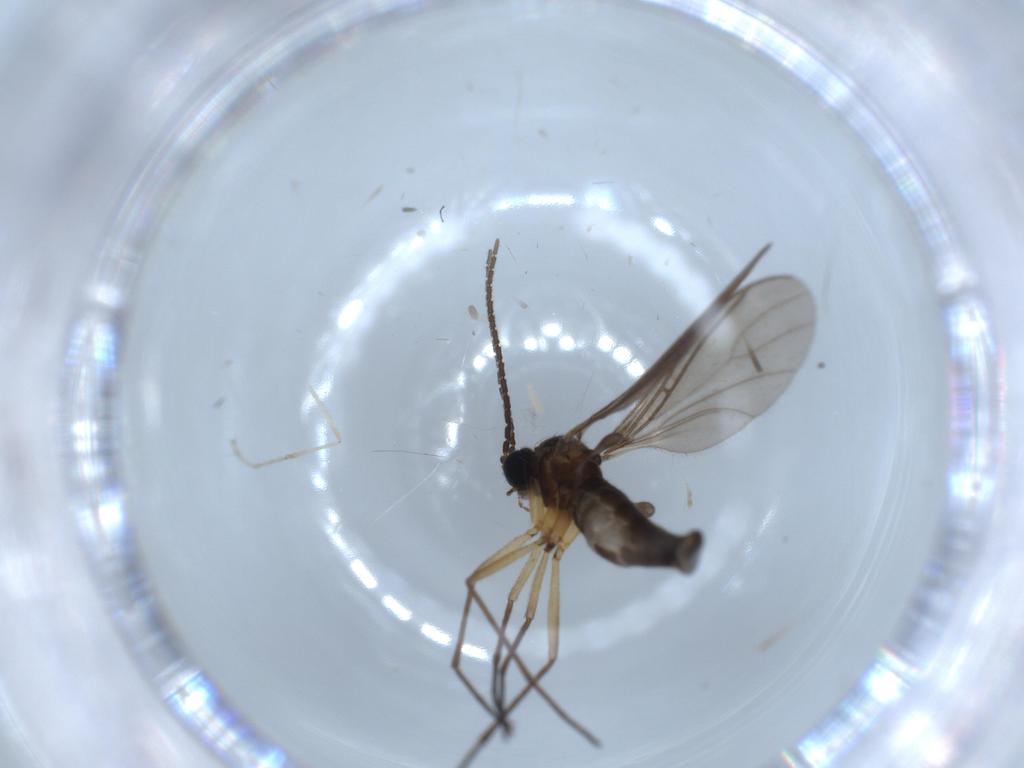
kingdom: Animalia
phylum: Arthropoda
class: Insecta
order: Diptera
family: Sciaridae
